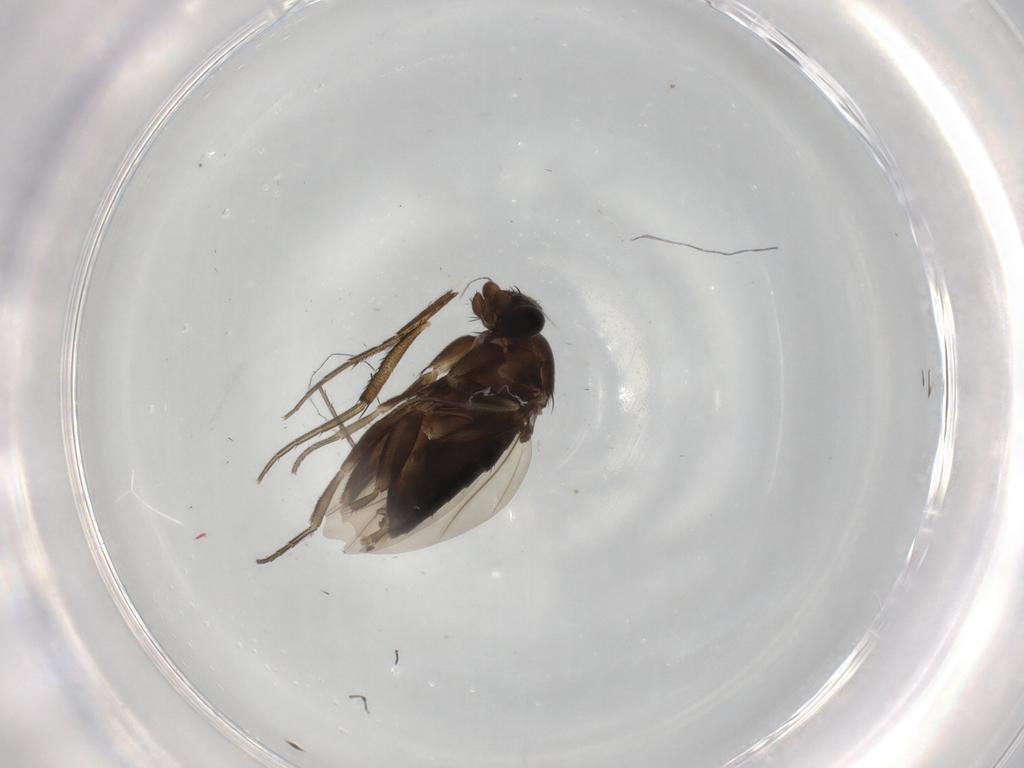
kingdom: Animalia
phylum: Arthropoda
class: Insecta
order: Diptera
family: Phoridae
